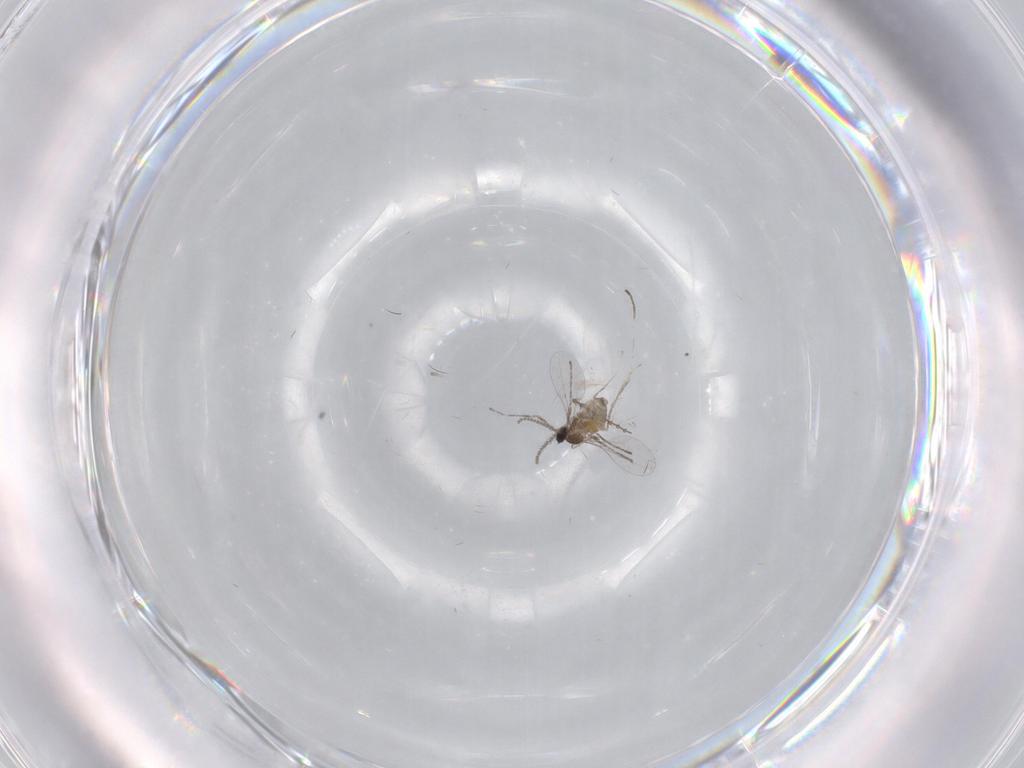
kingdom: Animalia
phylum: Arthropoda
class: Insecta
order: Diptera
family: Cecidomyiidae
